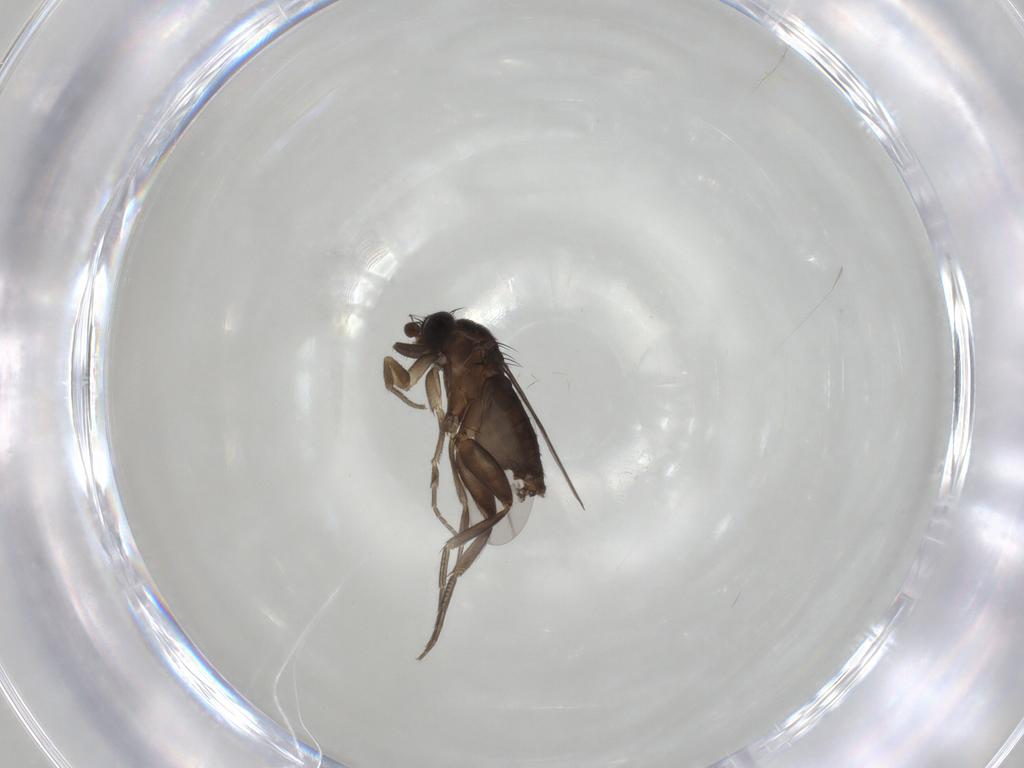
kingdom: Animalia
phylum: Arthropoda
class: Insecta
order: Diptera
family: Phoridae
